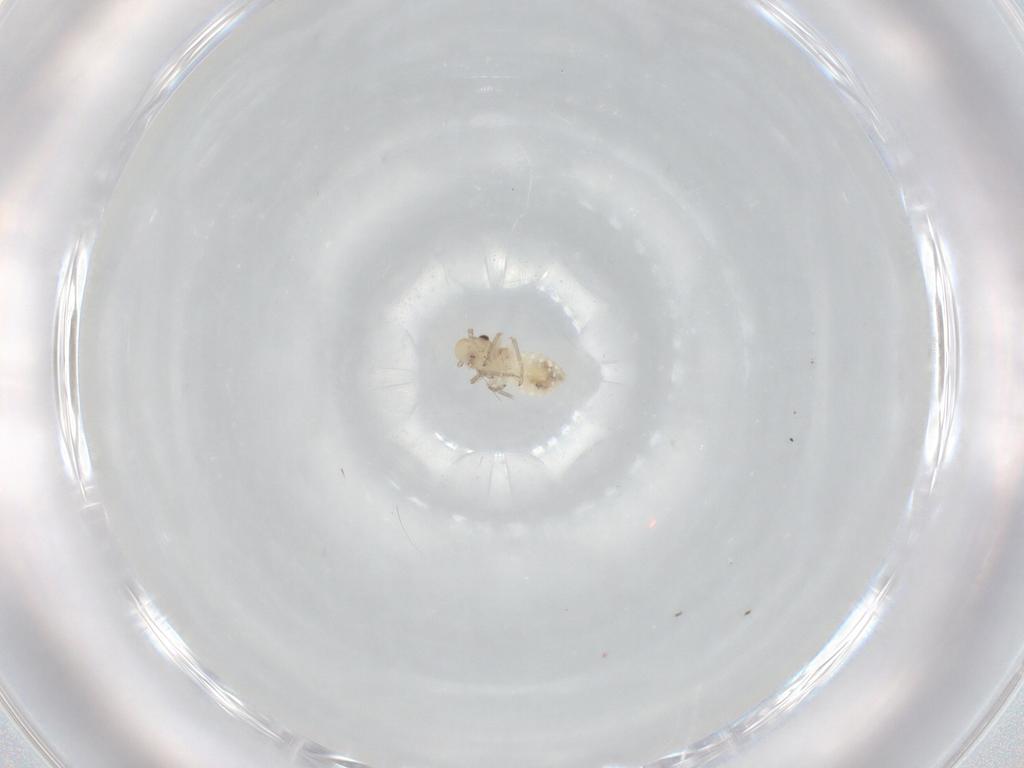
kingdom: Animalia
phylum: Arthropoda
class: Insecta
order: Psocodea
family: Caeciliusidae
